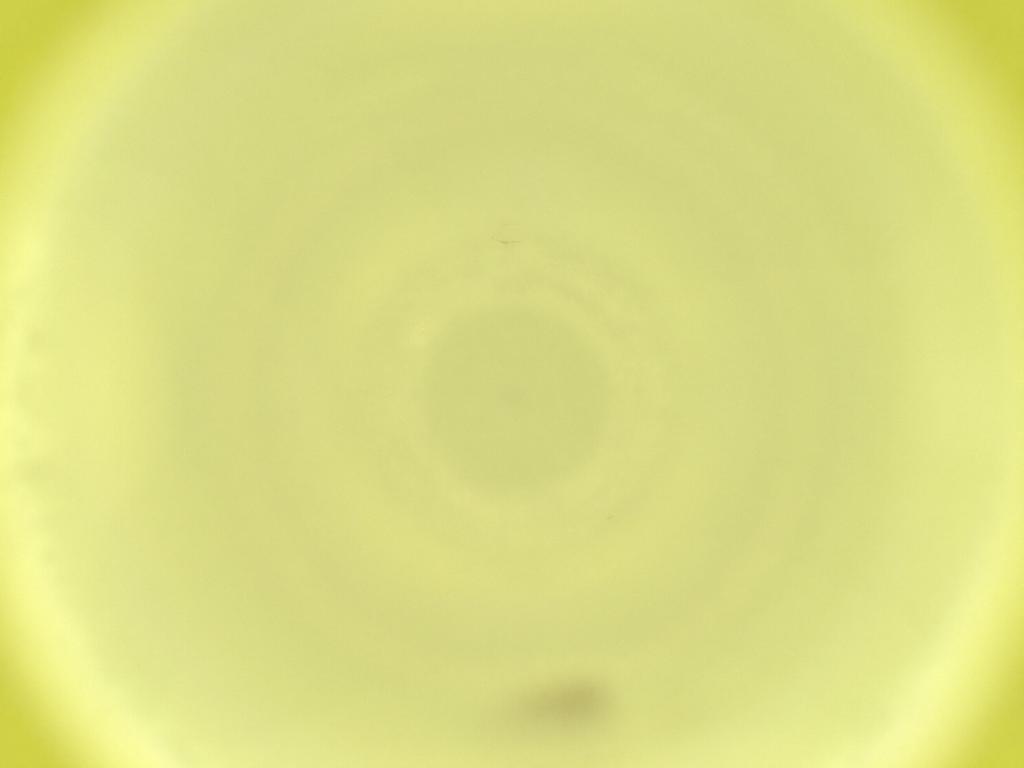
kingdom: Animalia
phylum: Arthropoda
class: Insecta
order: Diptera
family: Cecidomyiidae
